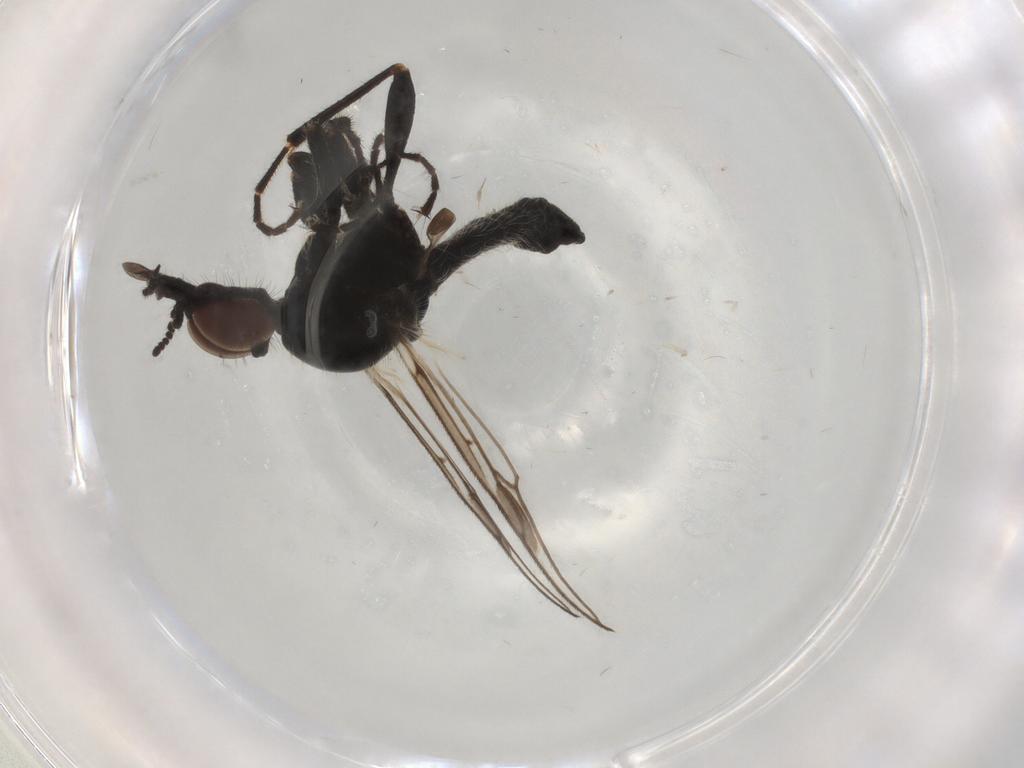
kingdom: Animalia
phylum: Arthropoda
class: Insecta
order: Diptera
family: Bibionidae
